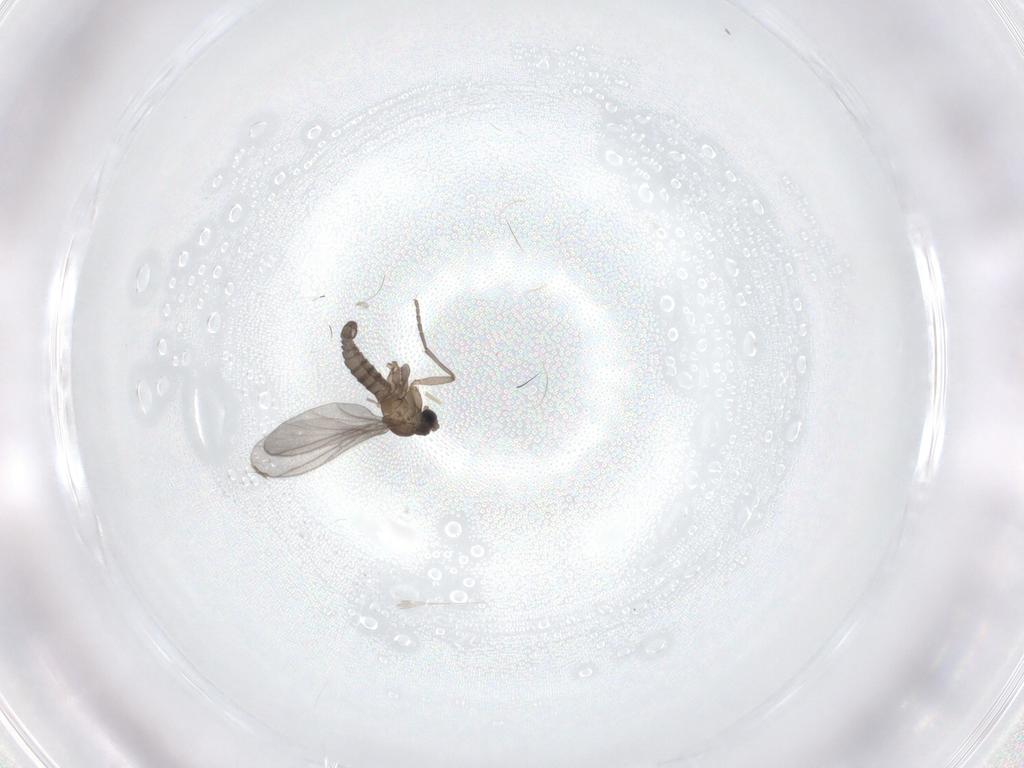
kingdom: Animalia
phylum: Arthropoda
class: Insecta
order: Diptera
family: Sciaridae
